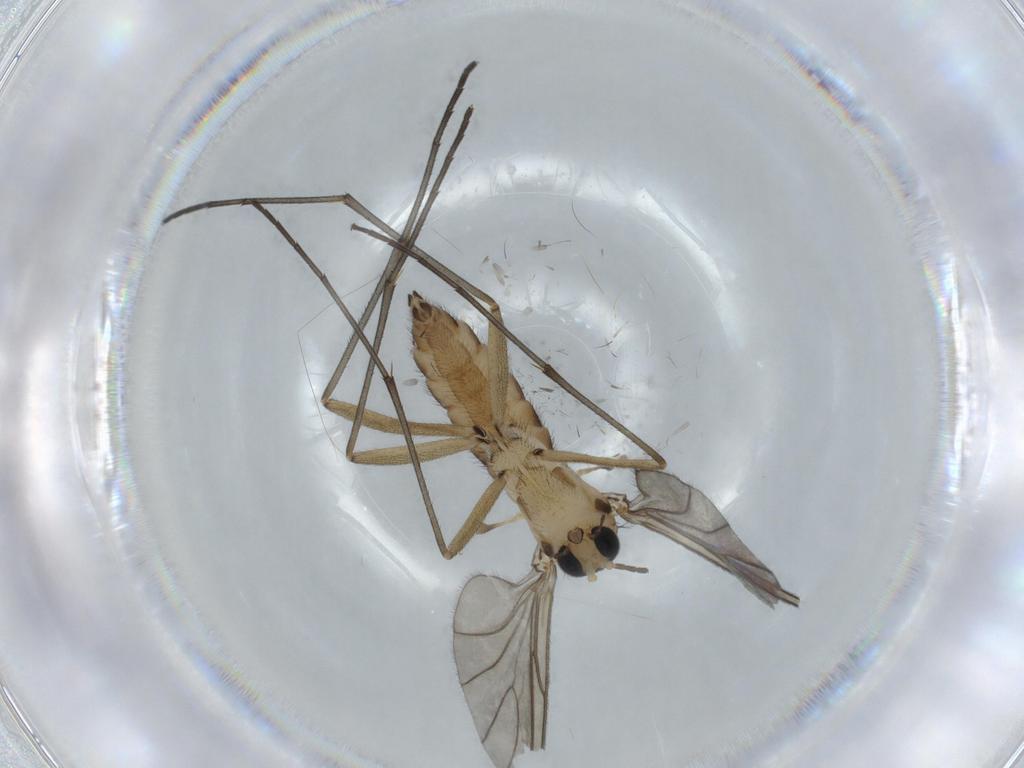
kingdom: Animalia
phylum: Arthropoda
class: Insecta
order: Diptera
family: Sciaridae
